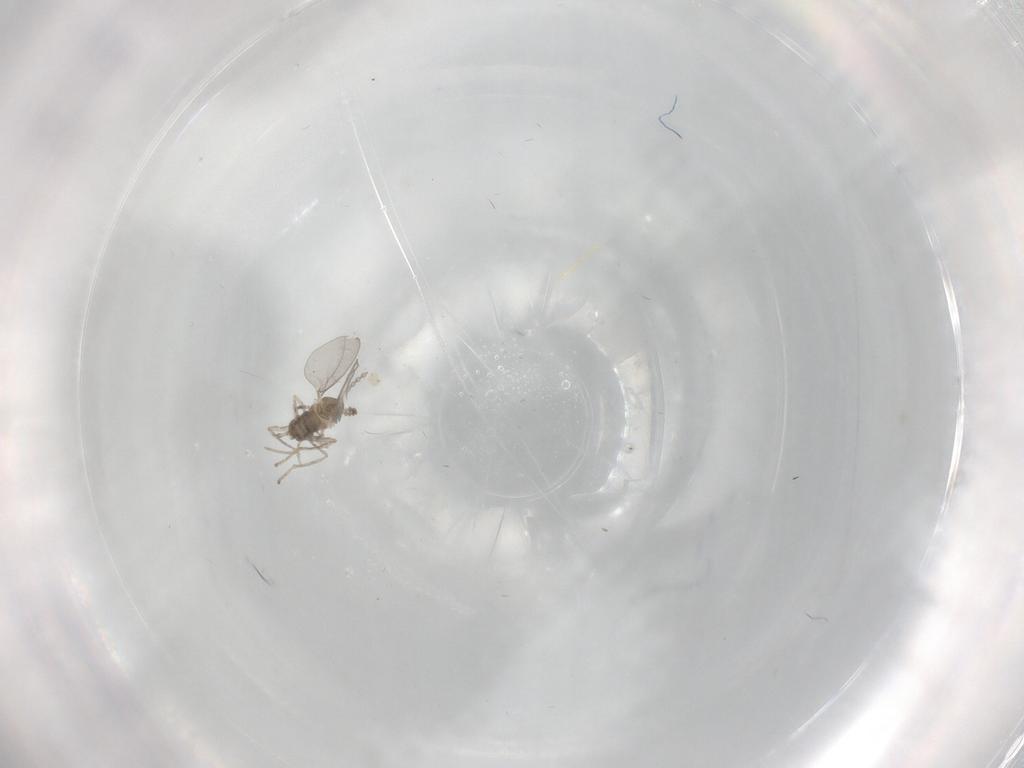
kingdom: Animalia
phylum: Arthropoda
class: Insecta
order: Diptera
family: Cecidomyiidae
